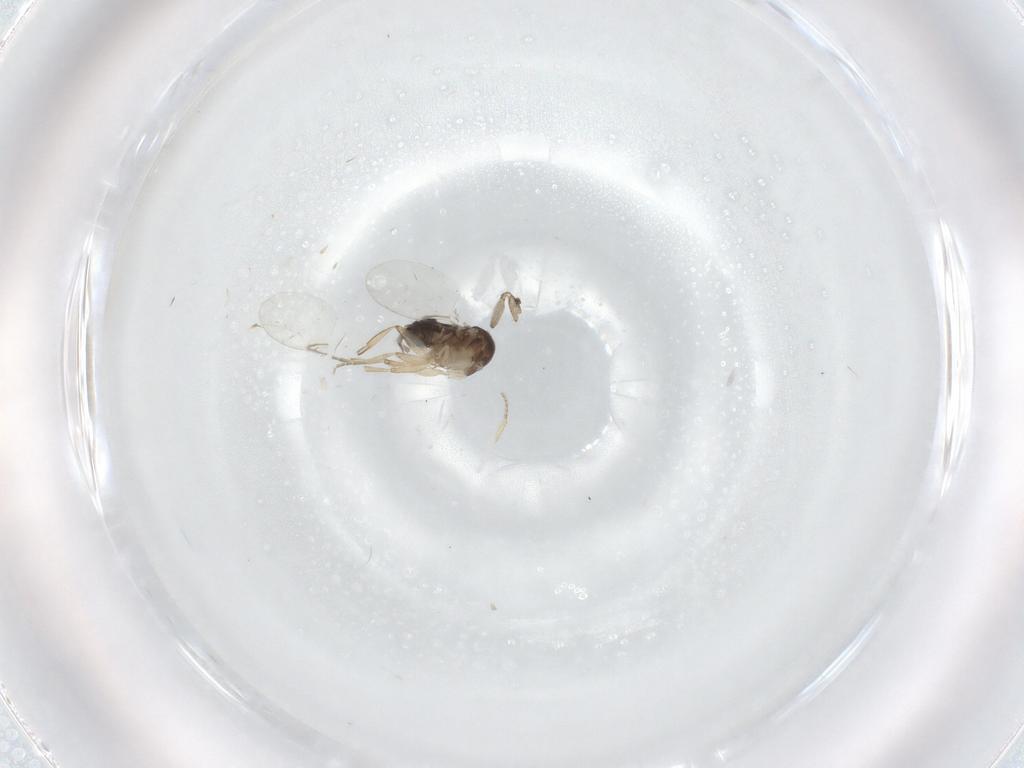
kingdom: Animalia
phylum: Arthropoda
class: Insecta
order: Diptera
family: Phoridae
